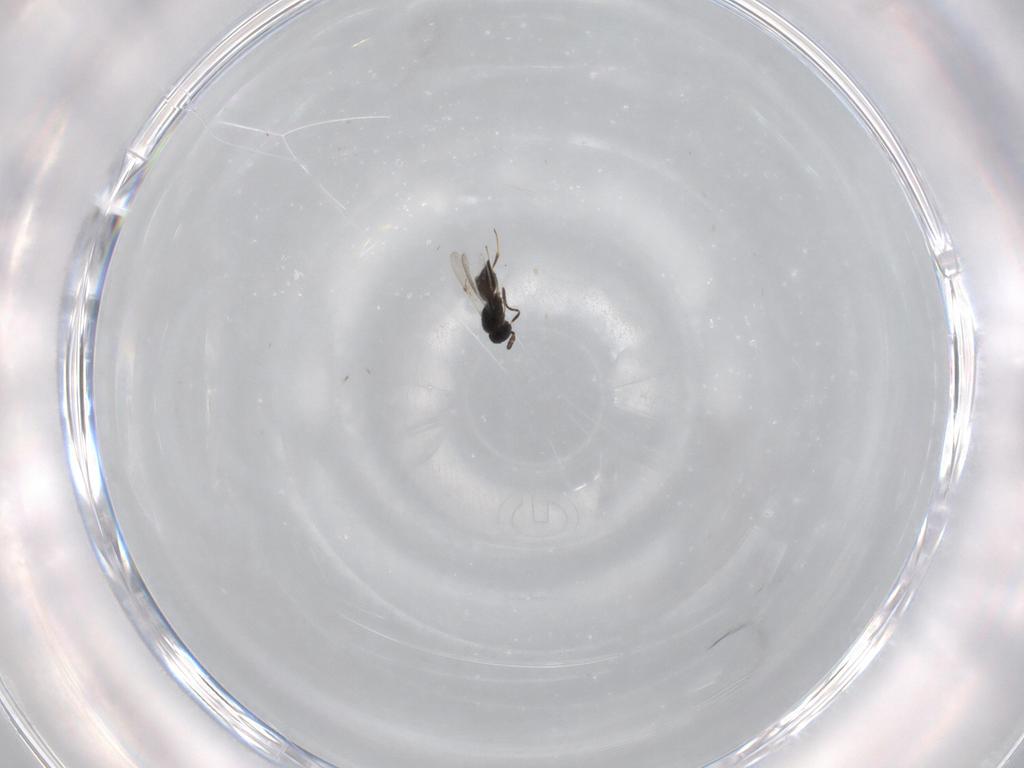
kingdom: Animalia
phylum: Arthropoda
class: Insecta
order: Hymenoptera
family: Scelionidae
